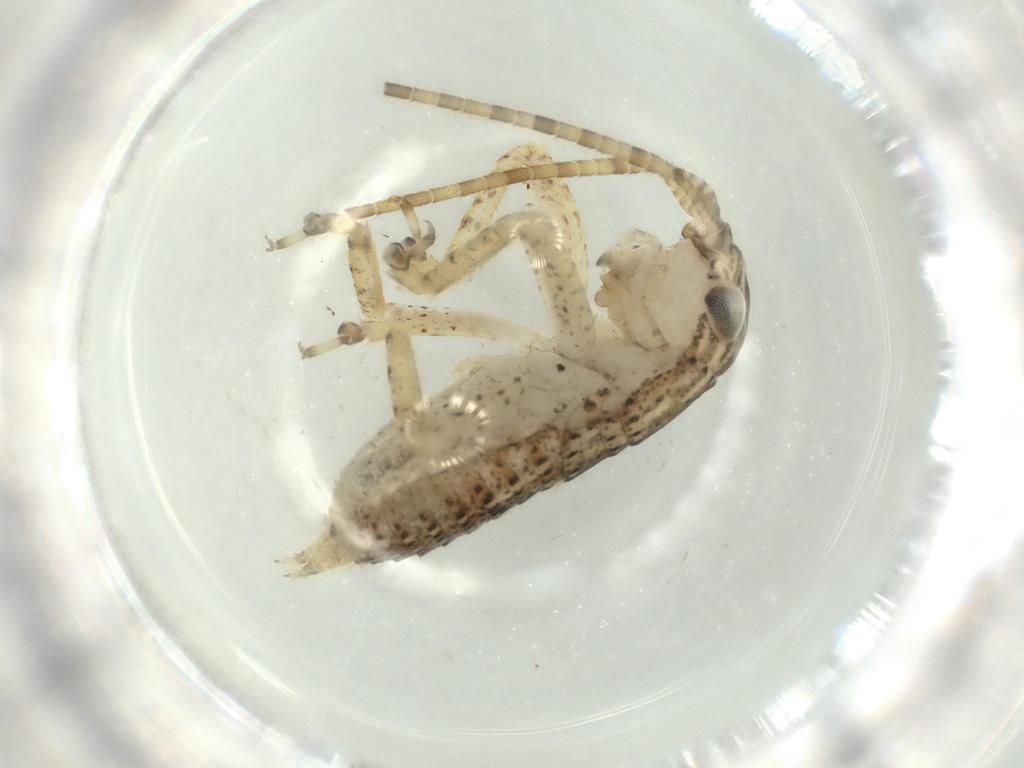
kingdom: Animalia
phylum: Arthropoda
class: Insecta
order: Orthoptera
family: Gryllidae
